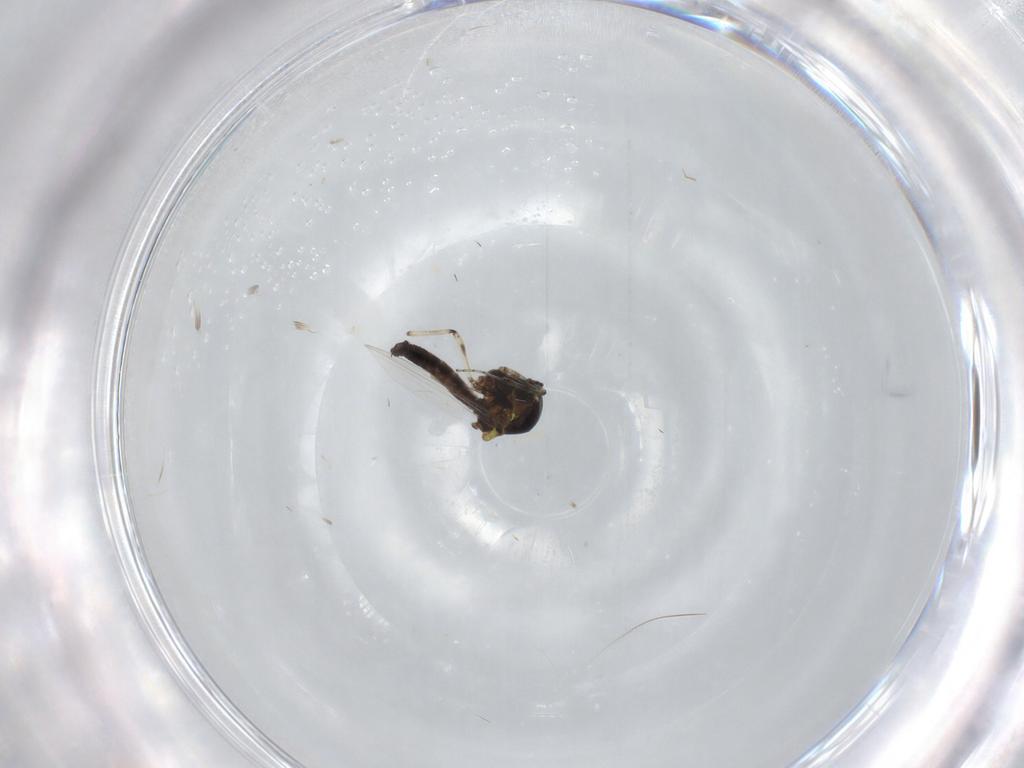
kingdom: Animalia
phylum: Arthropoda
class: Insecta
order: Diptera
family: Ceratopogonidae
